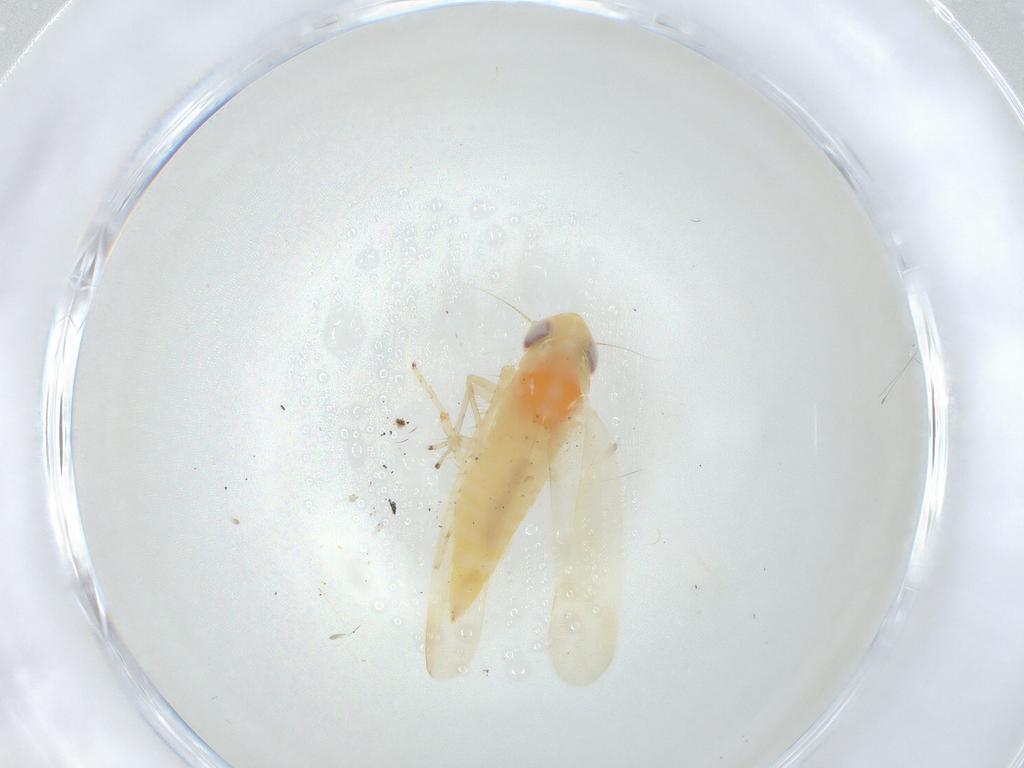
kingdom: Animalia
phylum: Arthropoda
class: Insecta
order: Hemiptera
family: Cicadellidae
